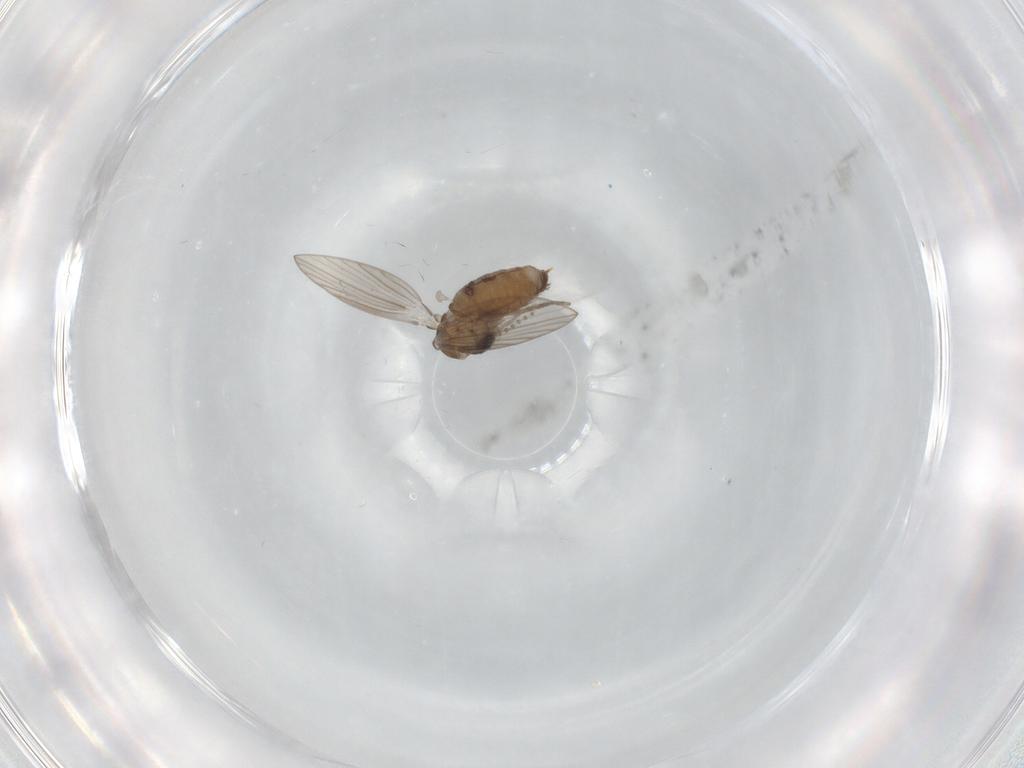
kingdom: Animalia
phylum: Arthropoda
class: Insecta
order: Diptera
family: Psychodidae
